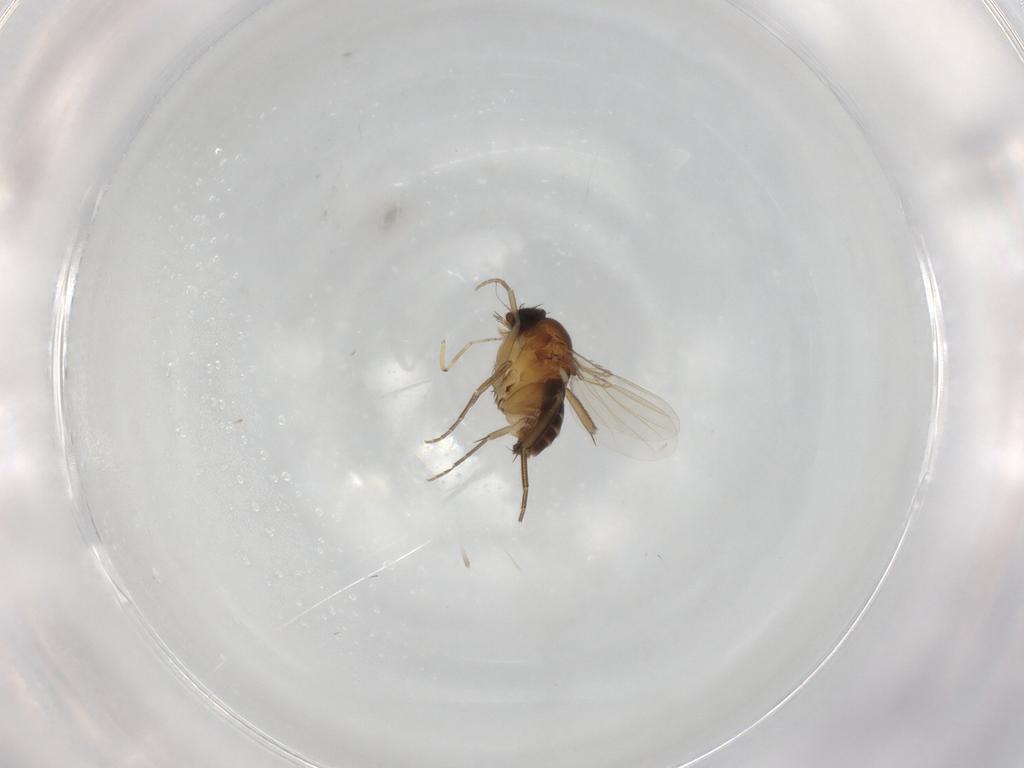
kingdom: Animalia
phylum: Arthropoda
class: Insecta
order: Diptera
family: Phoridae
